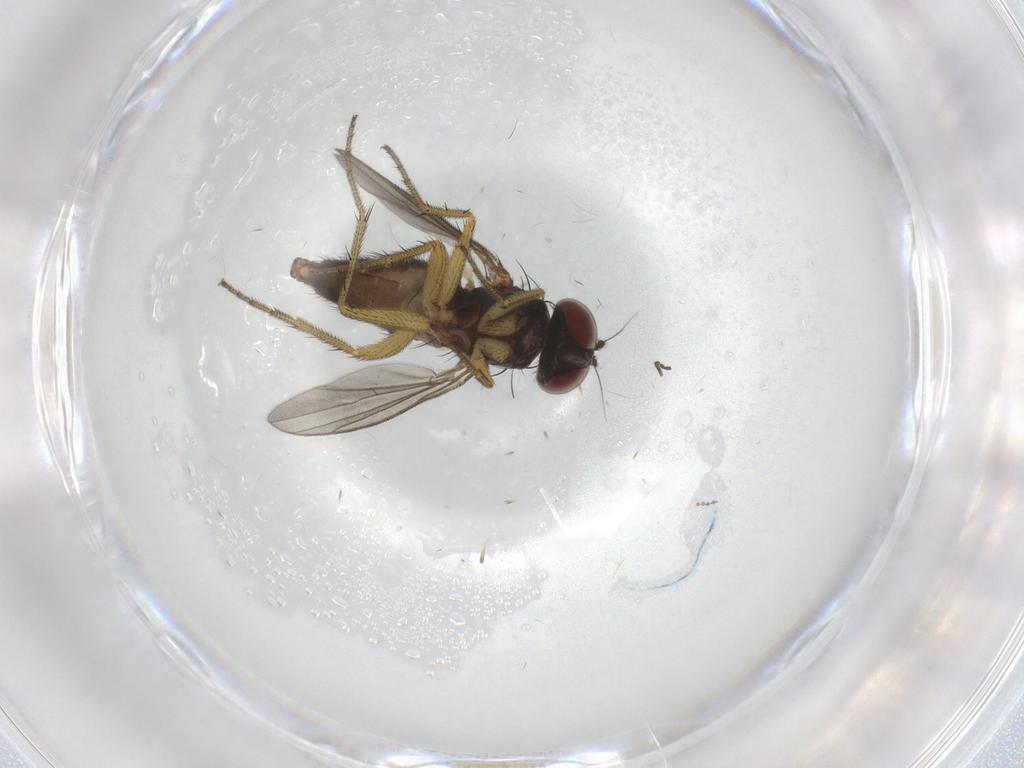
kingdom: Animalia
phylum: Arthropoda
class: Insecta
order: Diptera
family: Dolichopodidae
